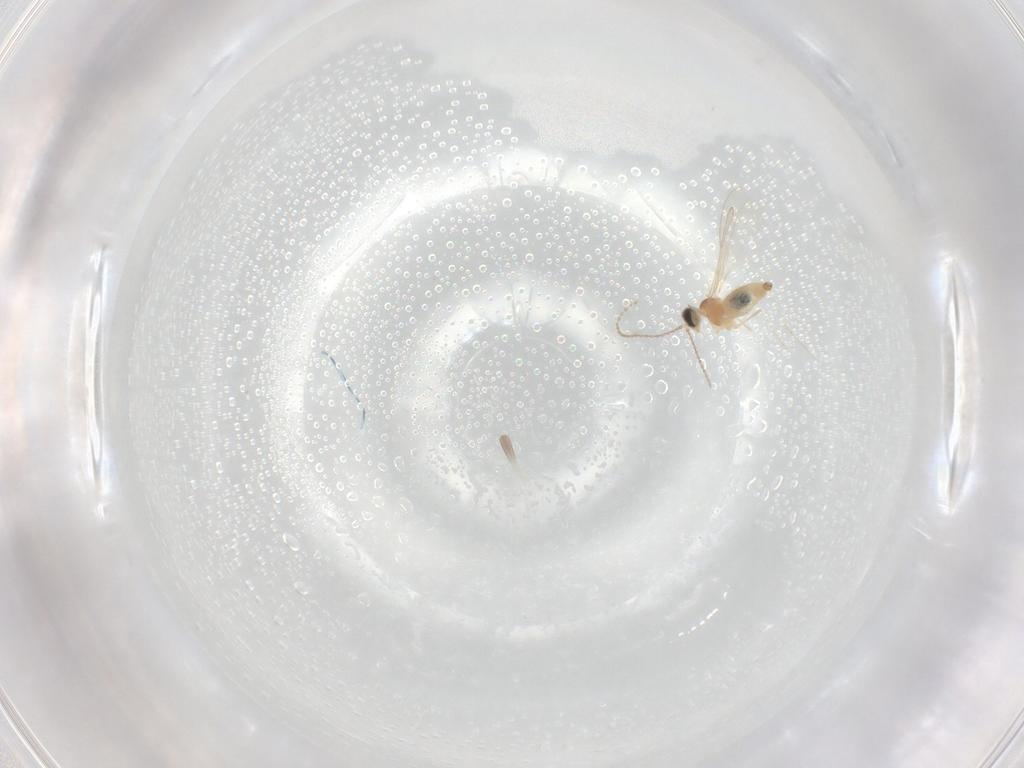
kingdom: Animalia
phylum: Arthropoda
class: Insecta
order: Diptera
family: Cecidomyiidae
